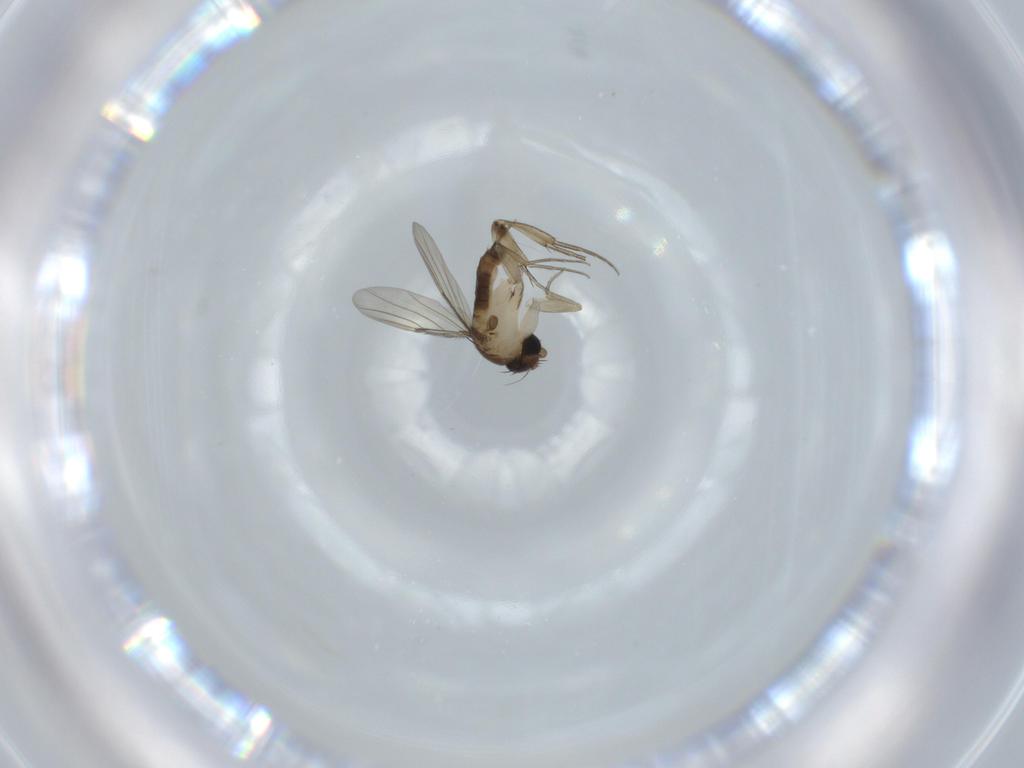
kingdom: Animalia
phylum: Arthropoda
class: Insecta
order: Diptera
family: Phoridae
